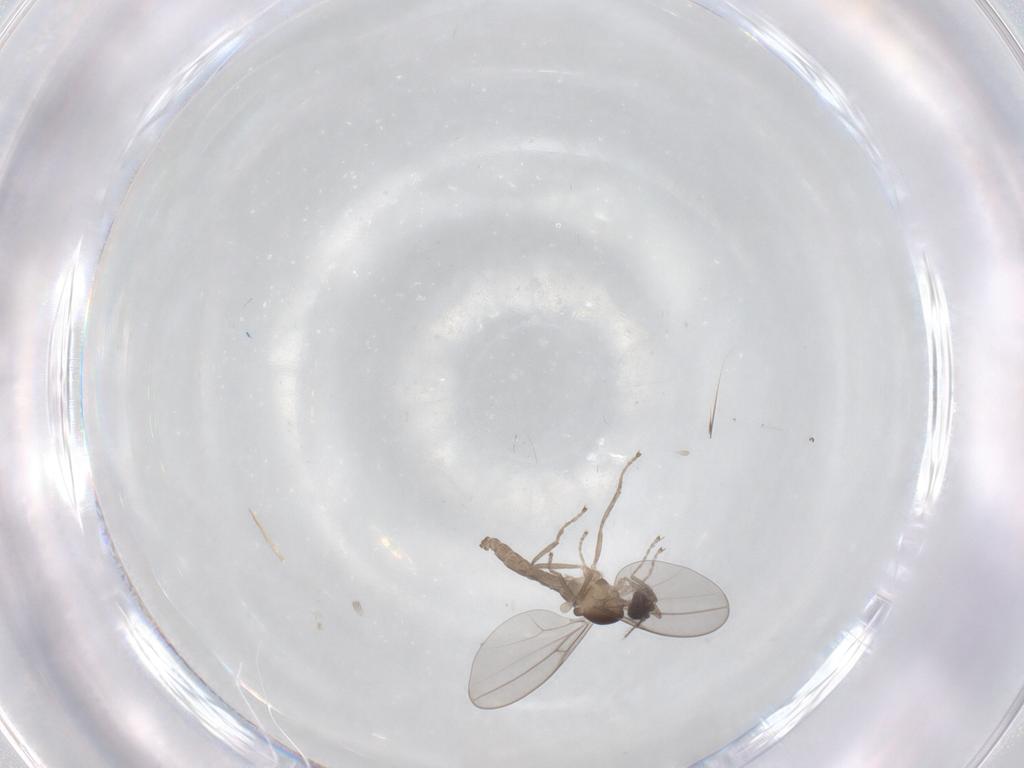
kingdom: Animalia
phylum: Arthropoda
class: Insecta
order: Diptera
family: Cecidomyiidae
